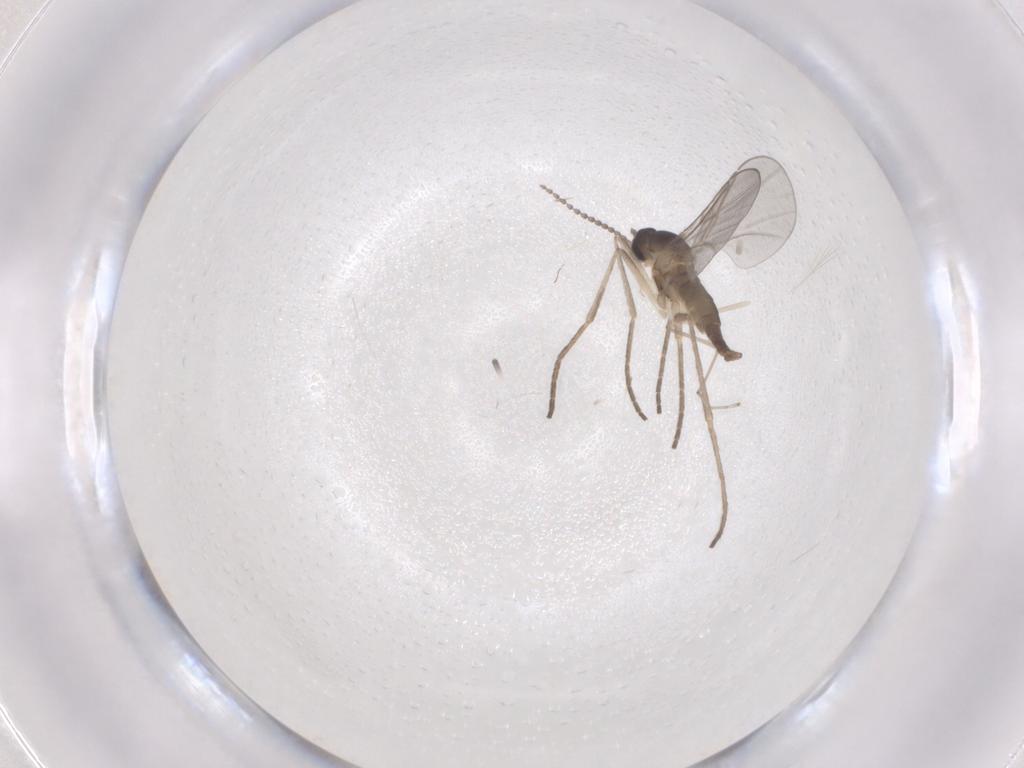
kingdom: Animalia
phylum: Arthropoda
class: Insecta
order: Diptera
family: Cecidomyiidae
